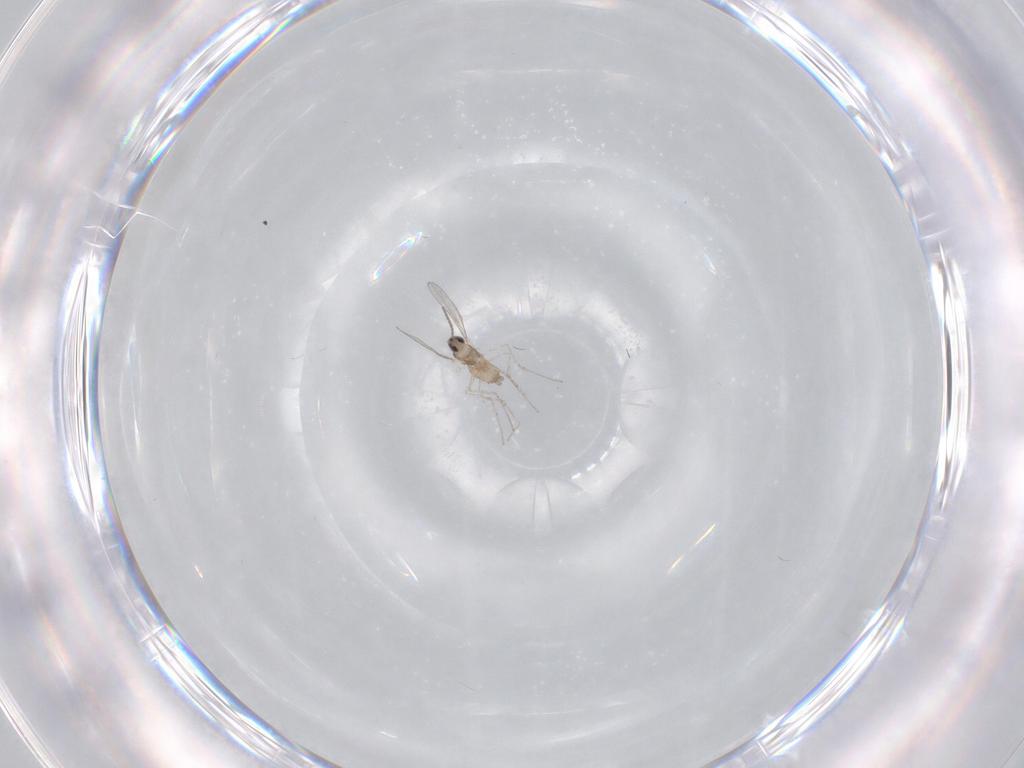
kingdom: Animalia
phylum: Arthropoda
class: Insecta
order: Diptera
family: Cecidomyiidae
